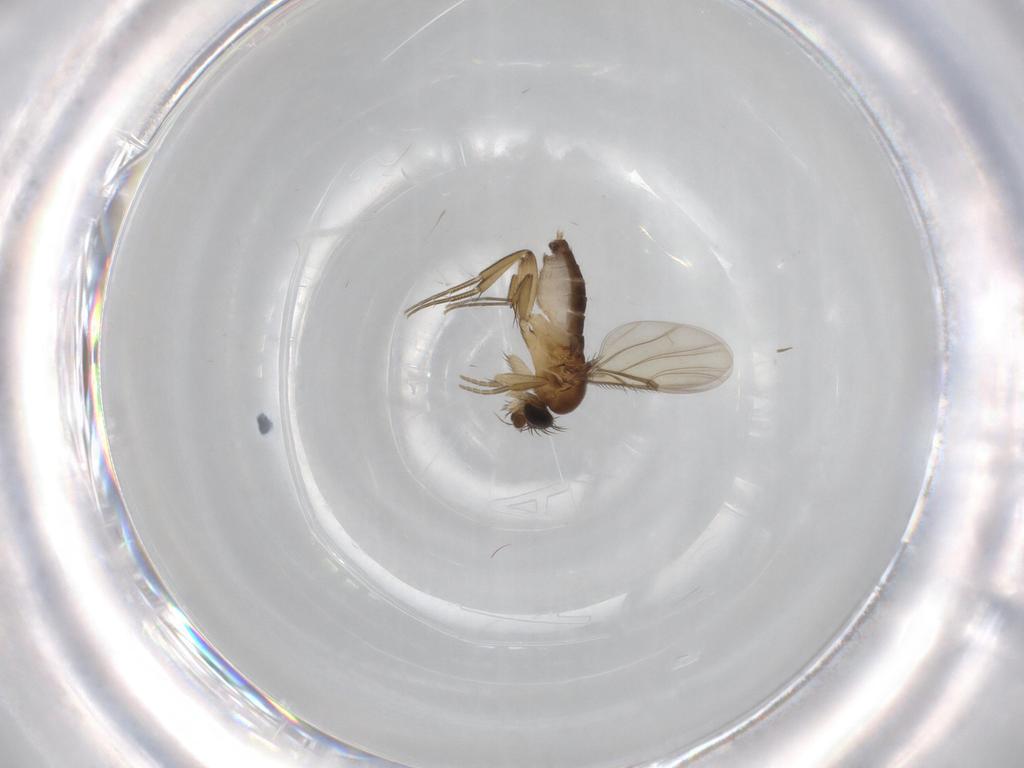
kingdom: Animalia
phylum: Arthropoda
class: Insecta
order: Diptera
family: Phoridae
